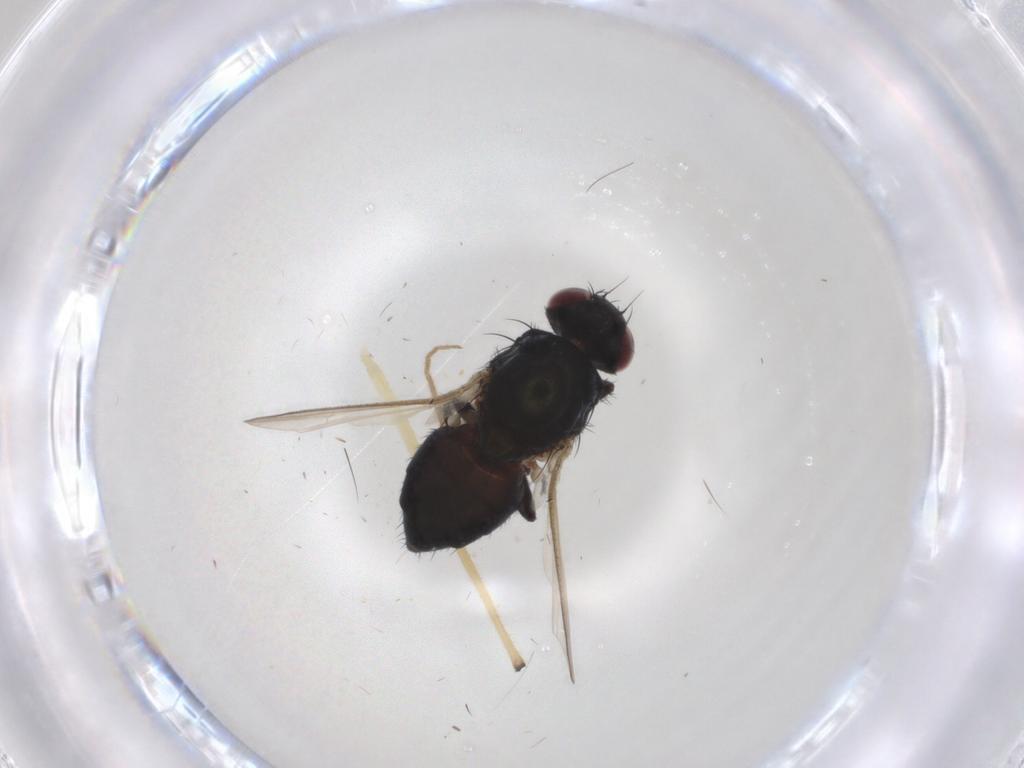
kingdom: Animalia
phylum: Arthropoda
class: Insecta
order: Diptera
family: Carnidae
